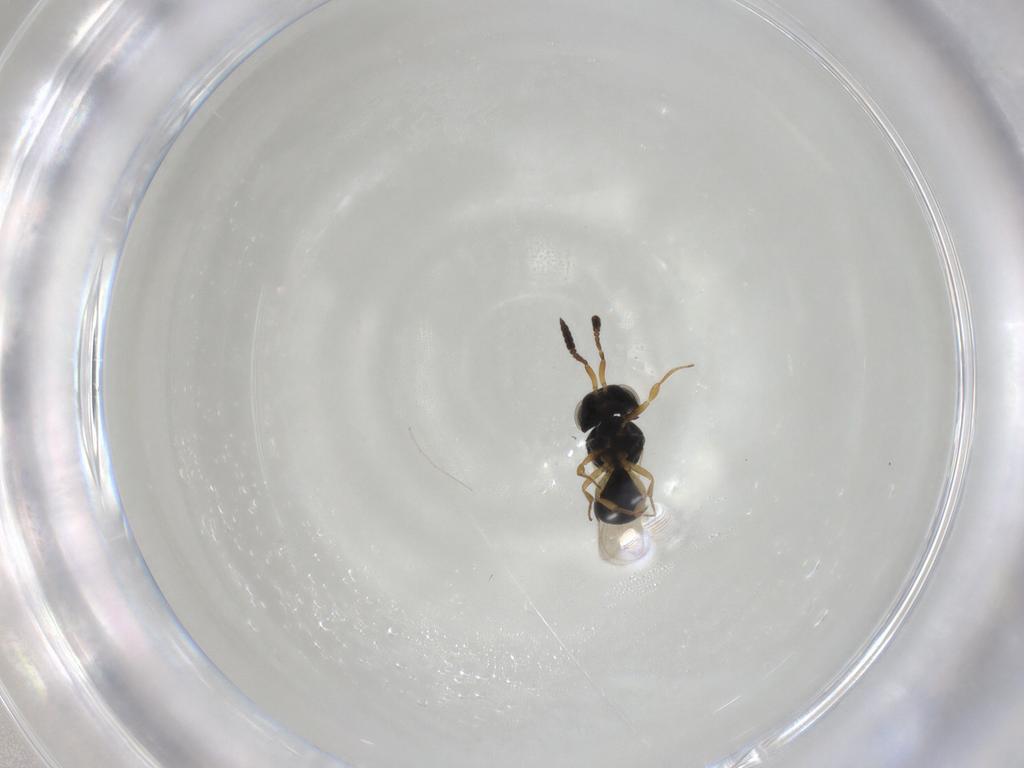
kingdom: Animalia
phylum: Arthropoda
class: Insecta
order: Hymenoptera
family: Scelionidae
